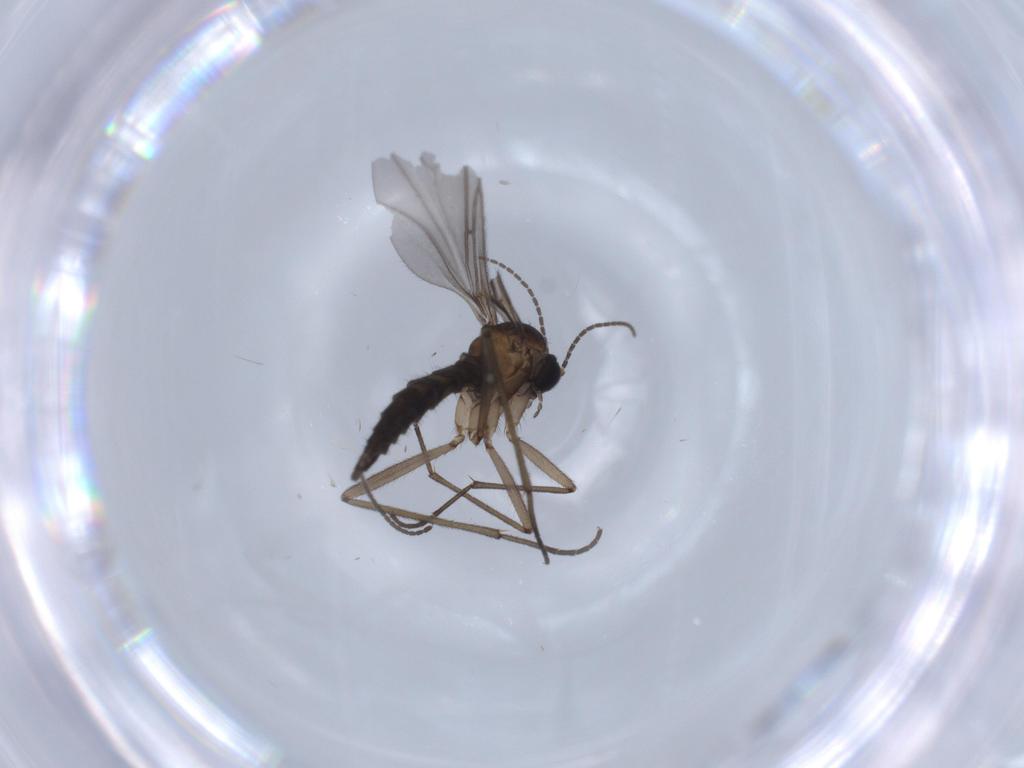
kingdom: Animalia
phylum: Arthropoda
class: Insecta
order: Diptera
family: Sciaridae
